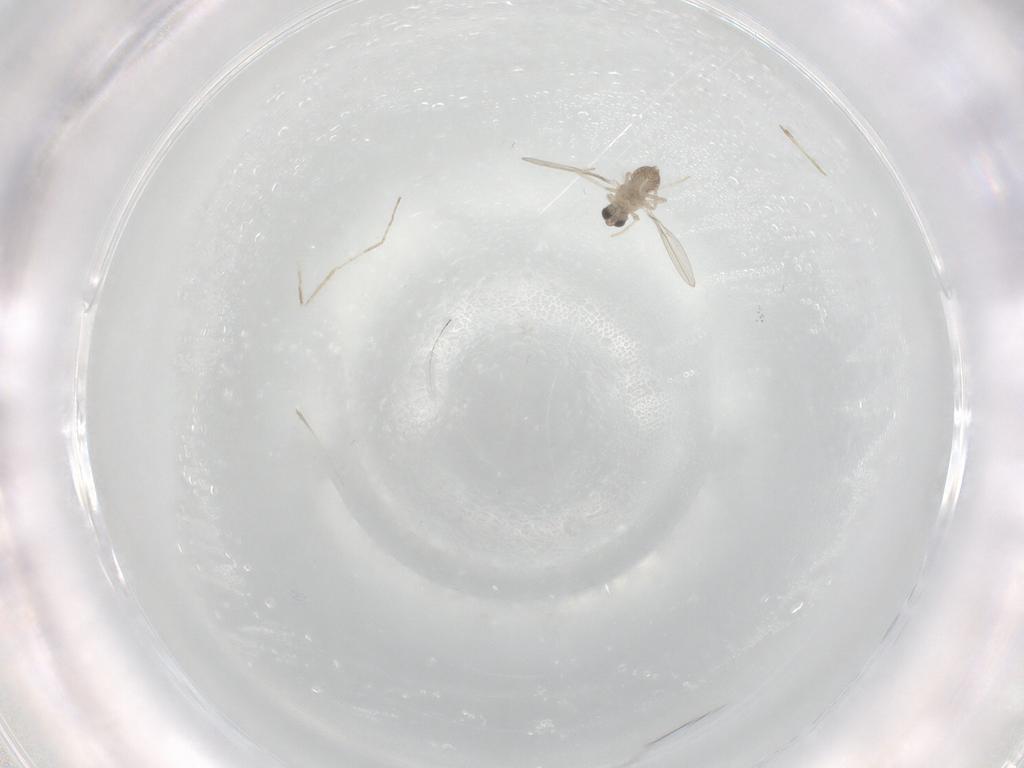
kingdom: Animalia
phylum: Arthropoda
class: Insecta
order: Diptera
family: Cecidomyiidae
